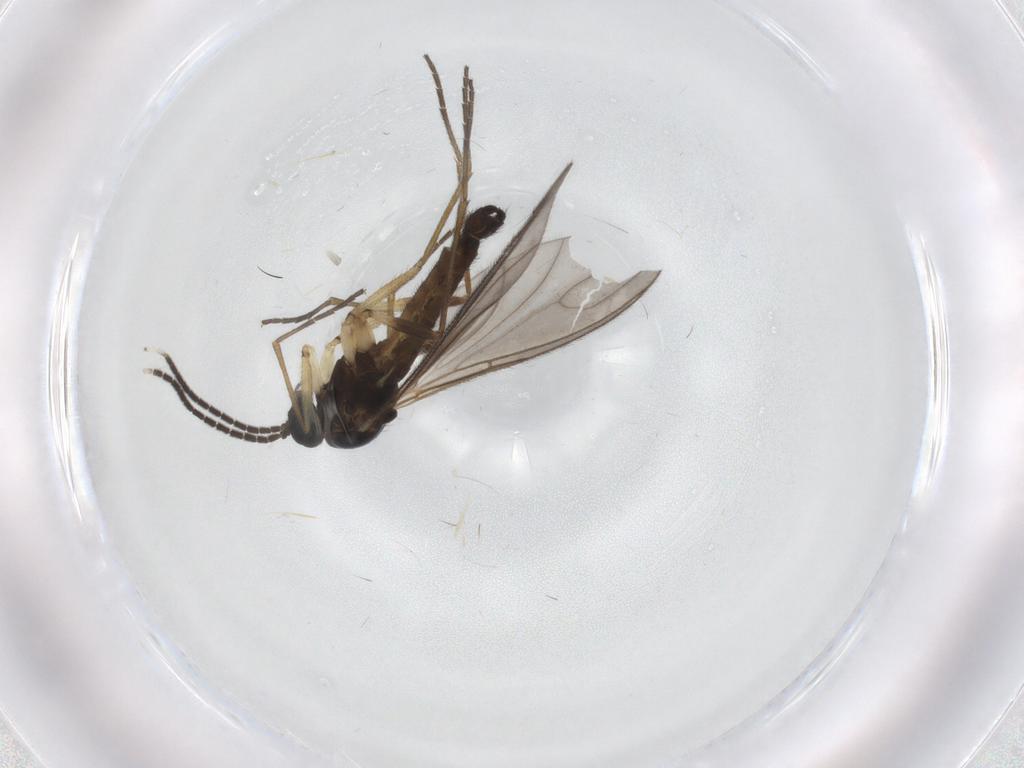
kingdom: Animalia
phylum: Arthropoda
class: Insecta
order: Diptera
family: Sciaridae
